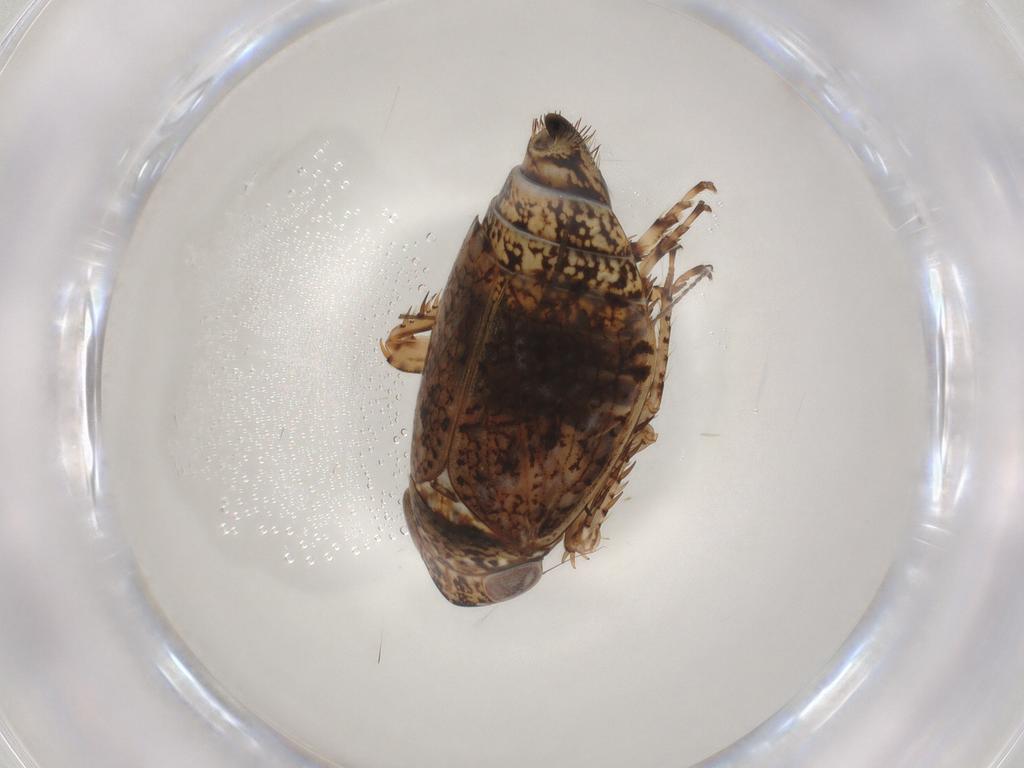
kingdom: Animalia
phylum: Arthropoda
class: Insecta
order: Hemiptera
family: Cicadellidae
